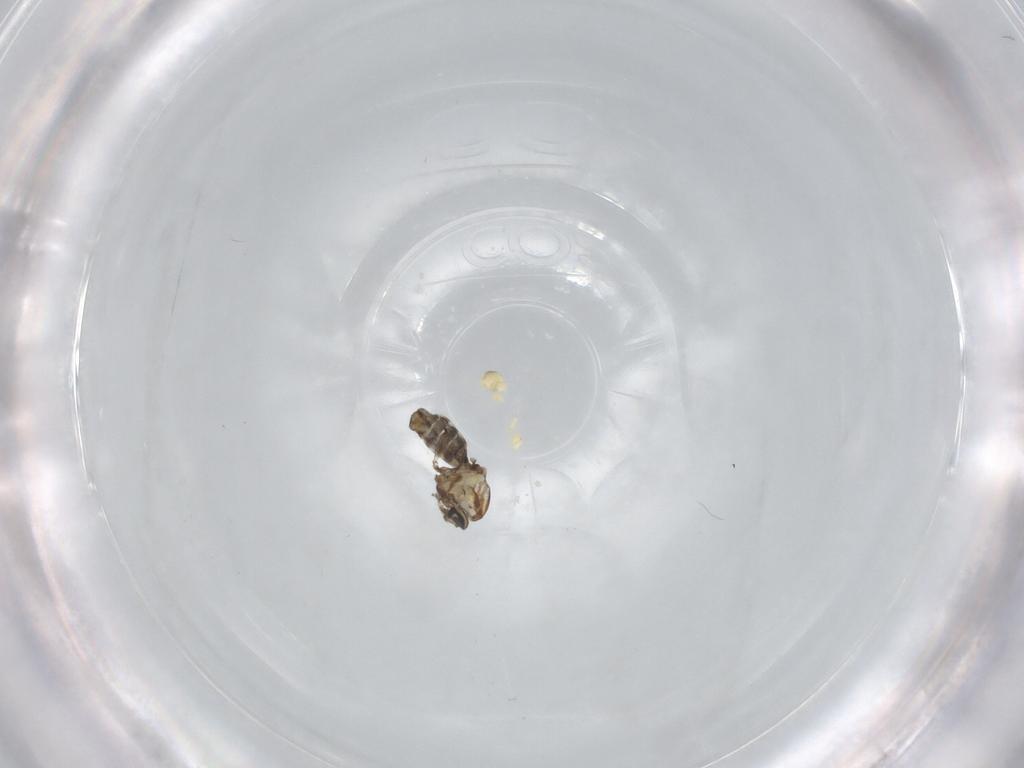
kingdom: Animalia
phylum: Arthropoda
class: Insecta
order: Diptera
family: Ceratopogonidae
